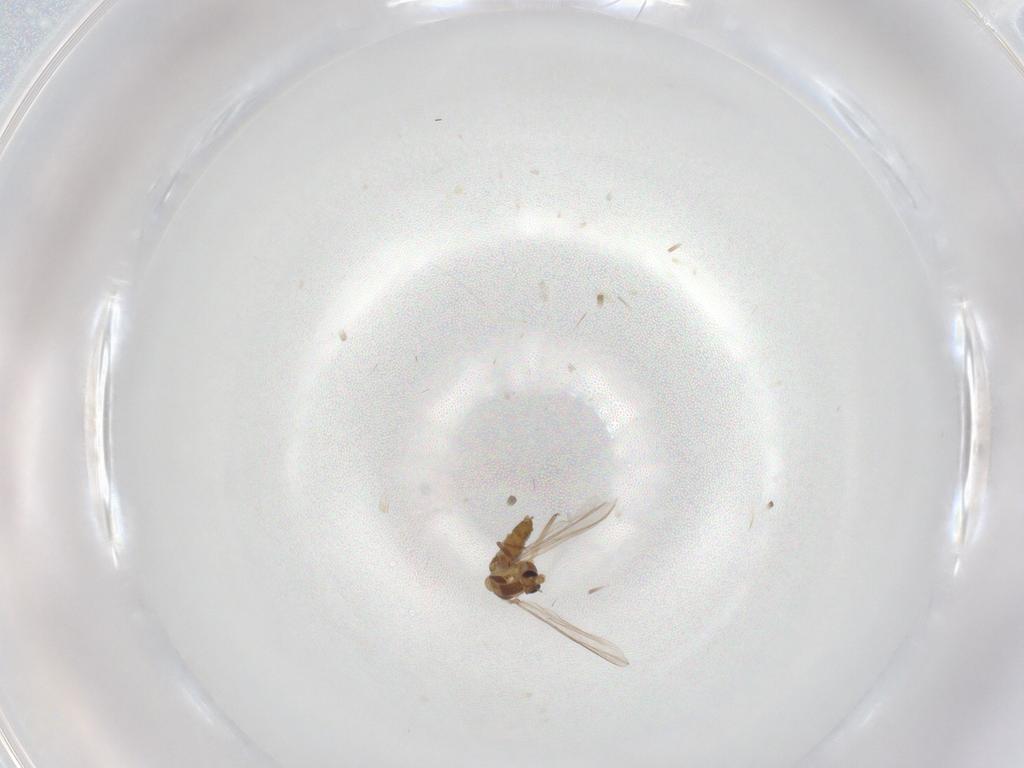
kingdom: Animalia
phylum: Arthropoda
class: Insecta
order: Diptera
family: Chironomidae
